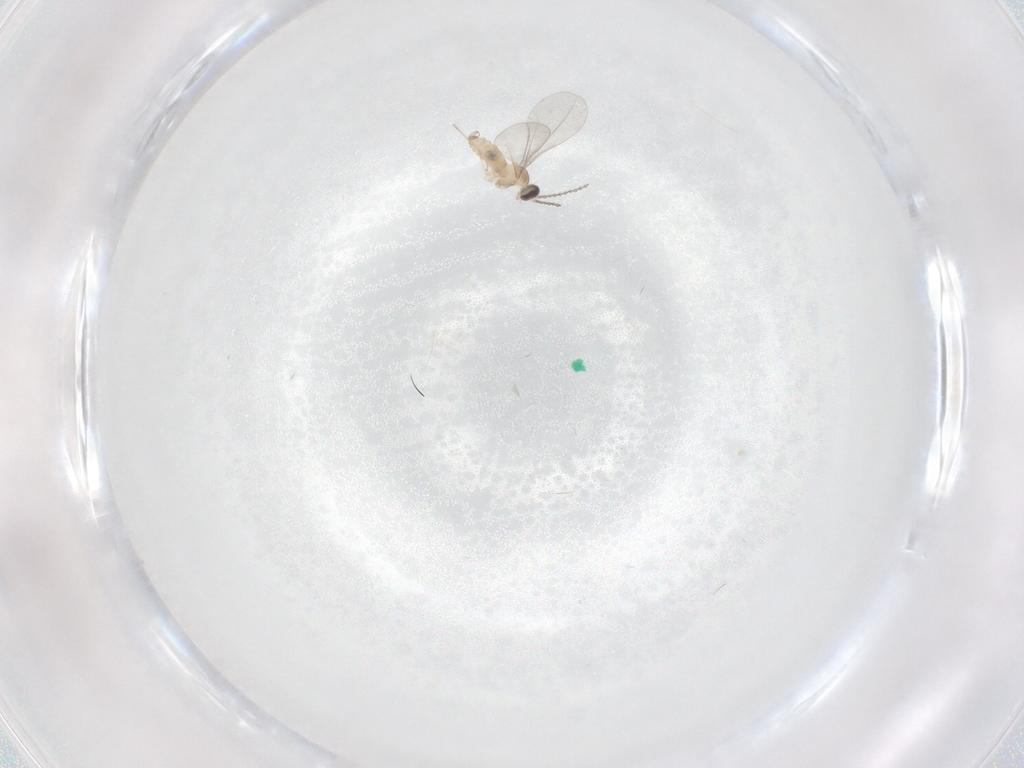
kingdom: Animalia
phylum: Arthropoda
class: Insecta
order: Diptera
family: Cecidomyiidae
